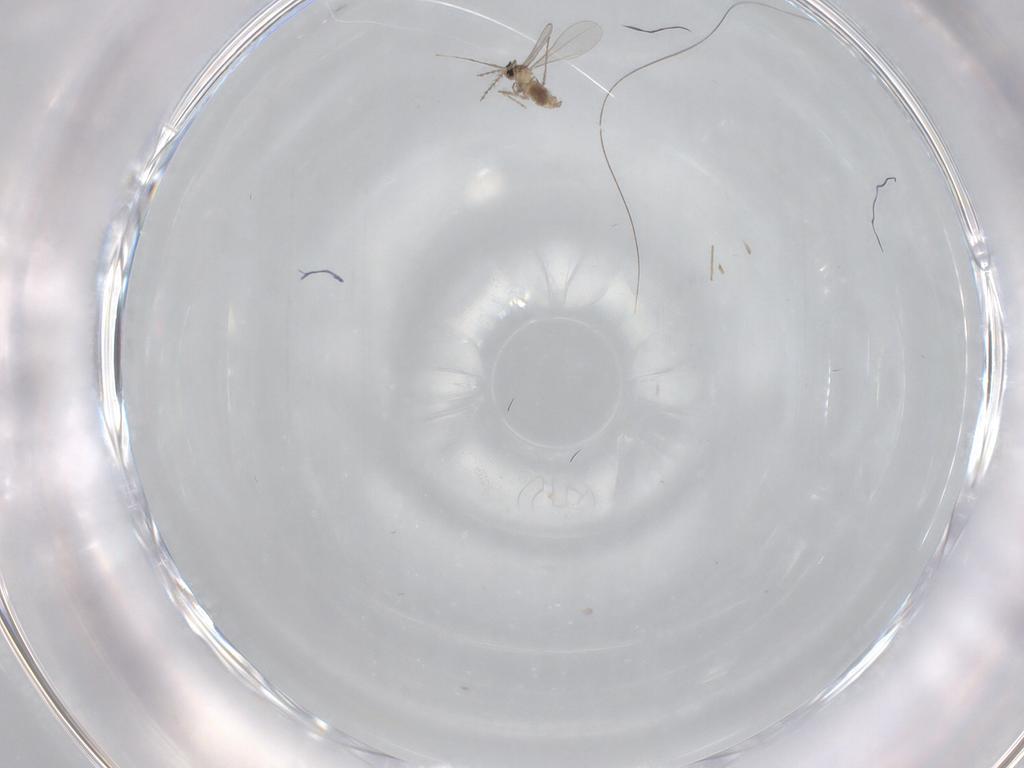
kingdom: Animalia
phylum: Arthropoda
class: Insecta
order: Diptera
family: Cecidomyiidae
